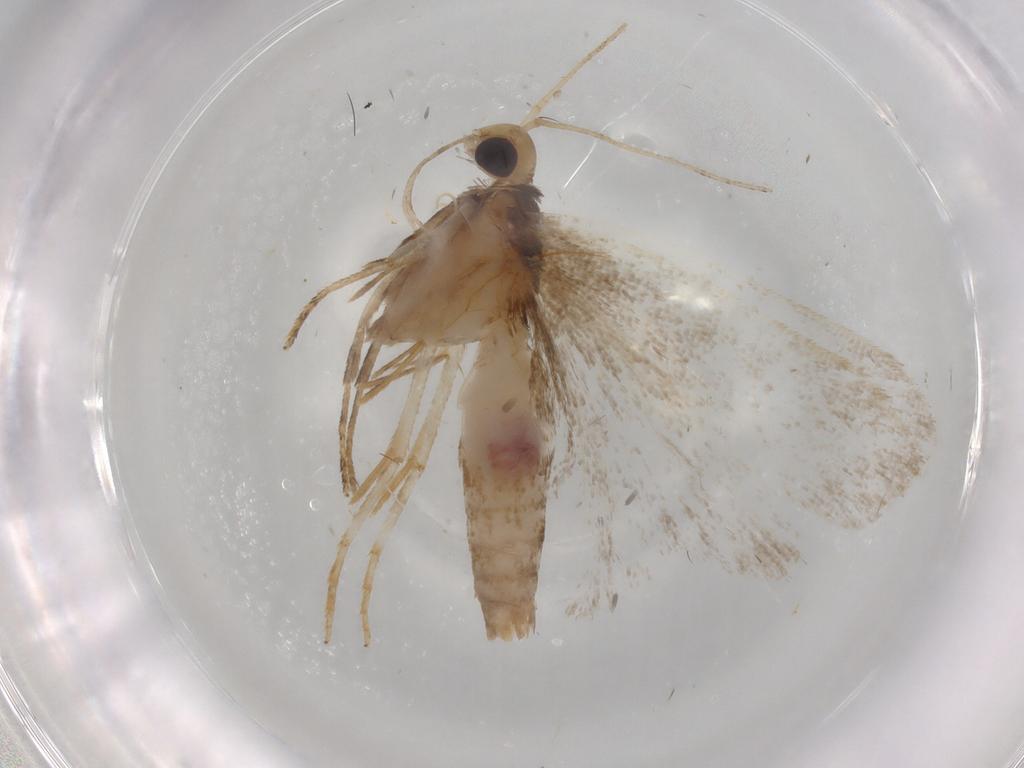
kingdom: Animalia
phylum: Arthropoda
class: Insecta
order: Lepidoptera
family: Gelechiidae
